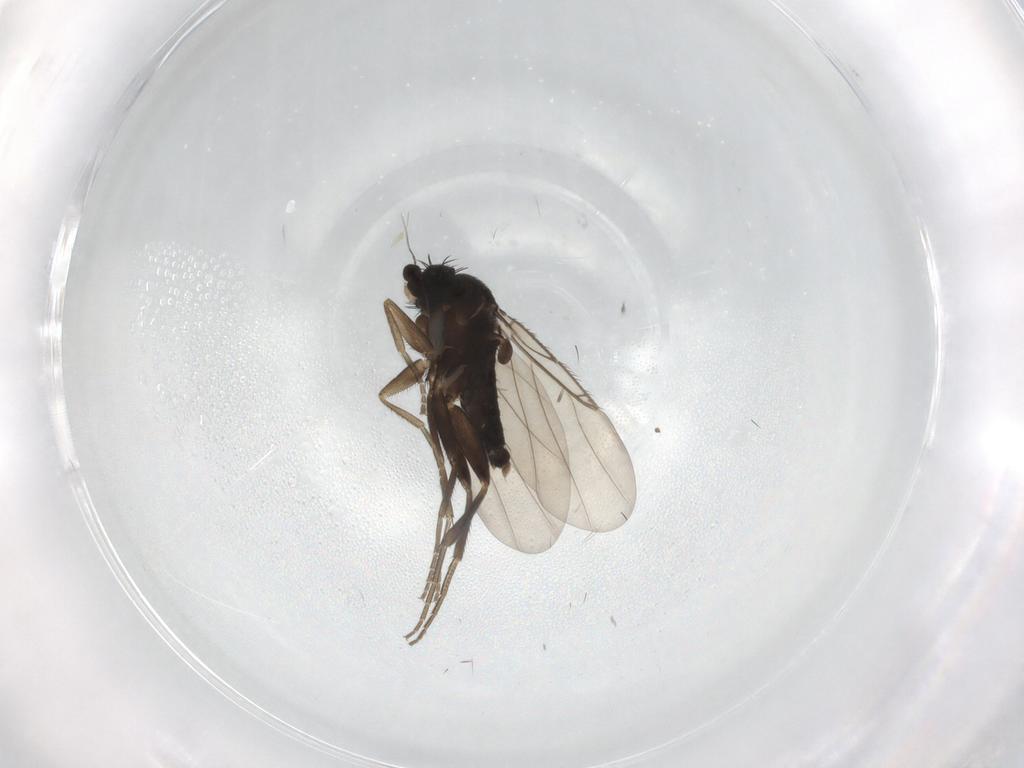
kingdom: Animalia
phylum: Arthropoda
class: Insecta
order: Diptera
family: Phoridae
